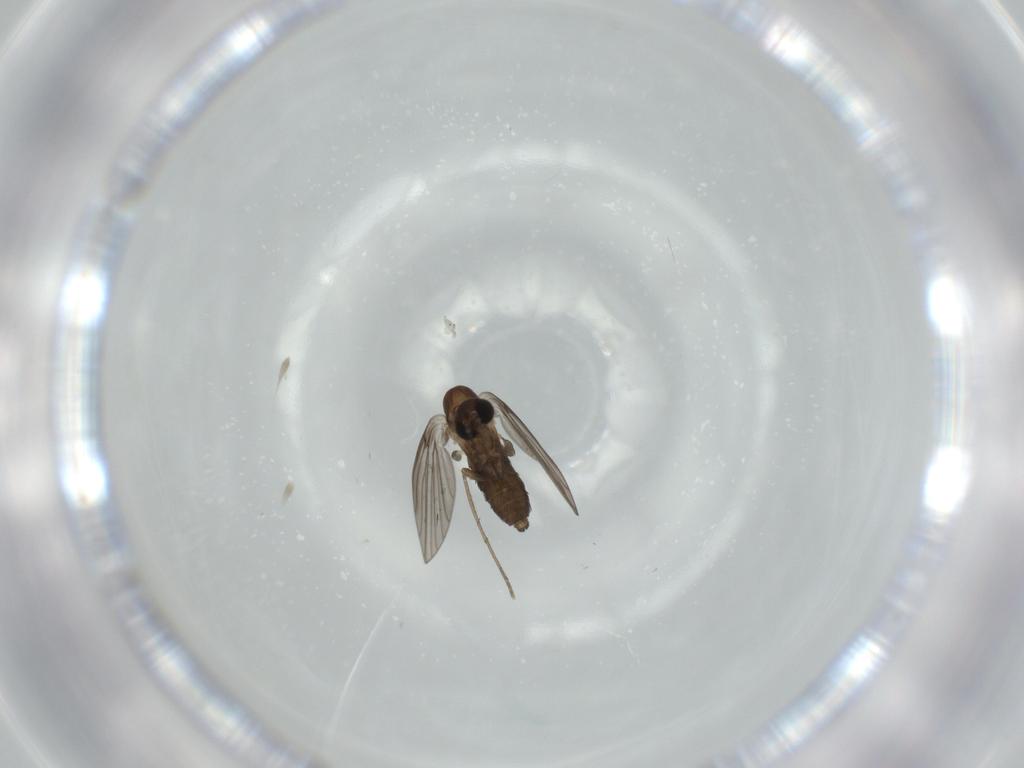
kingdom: Animalia
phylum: Arthropoda
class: Insecta
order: Diptera
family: Psychodidae
